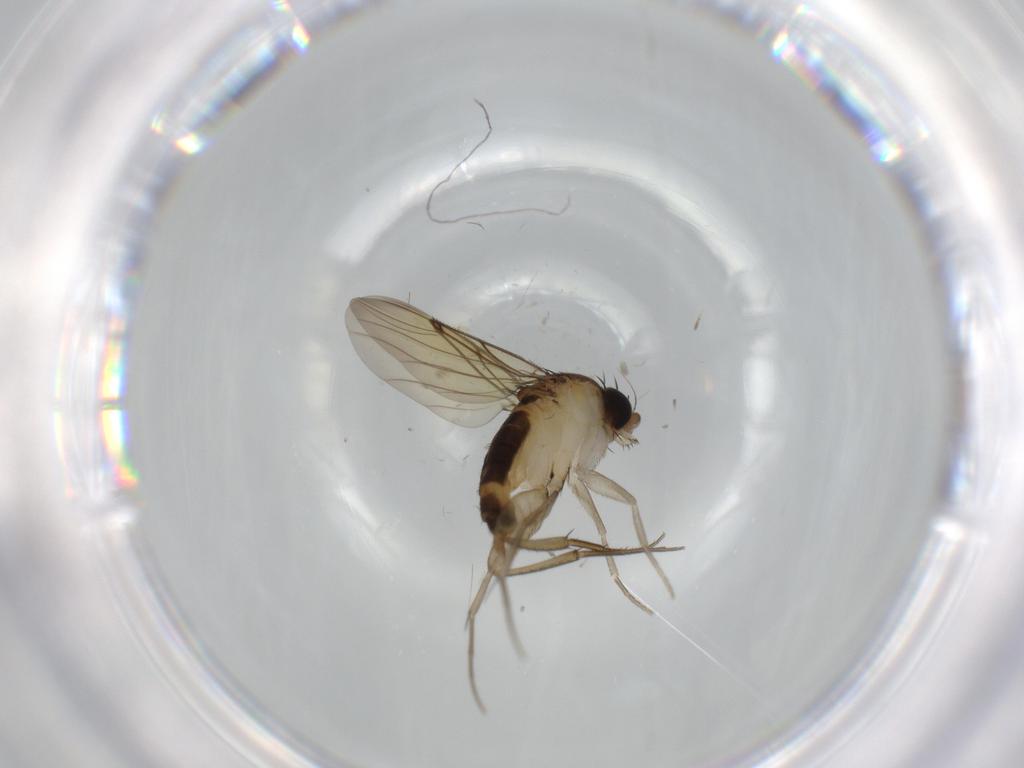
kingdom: Animalia
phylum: Arthropoda
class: Insecta
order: Diptera
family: Phoridae
